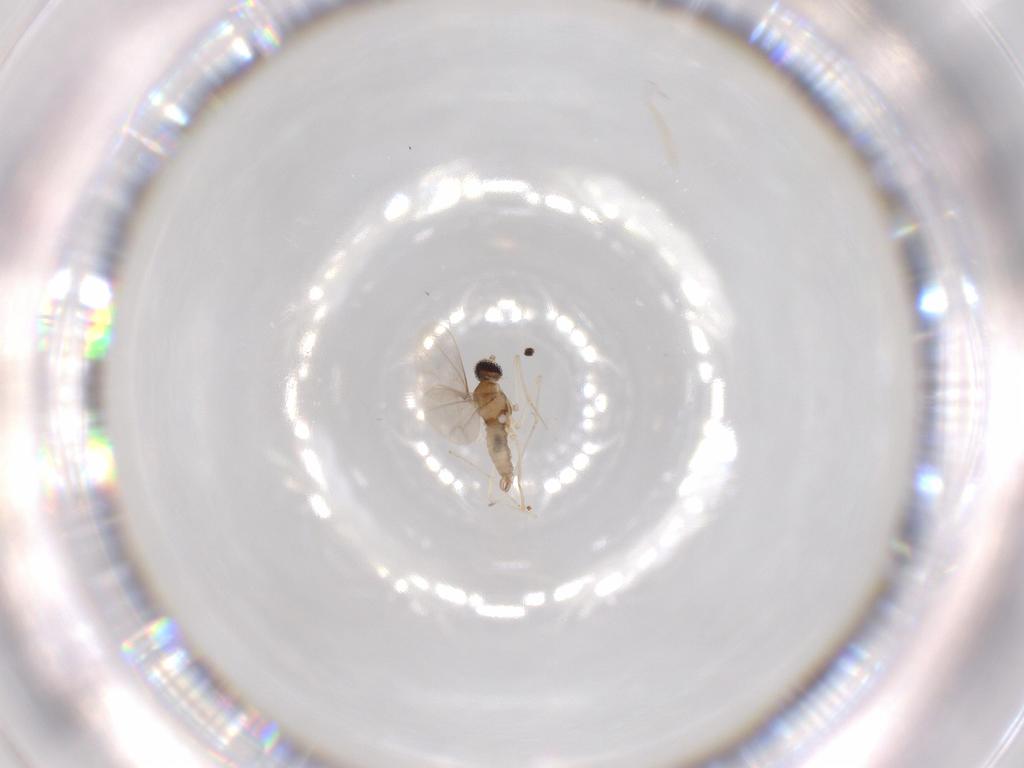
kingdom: Animalia
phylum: Arthropoda
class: Insecta
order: Diptera
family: Cecidomyiidae
